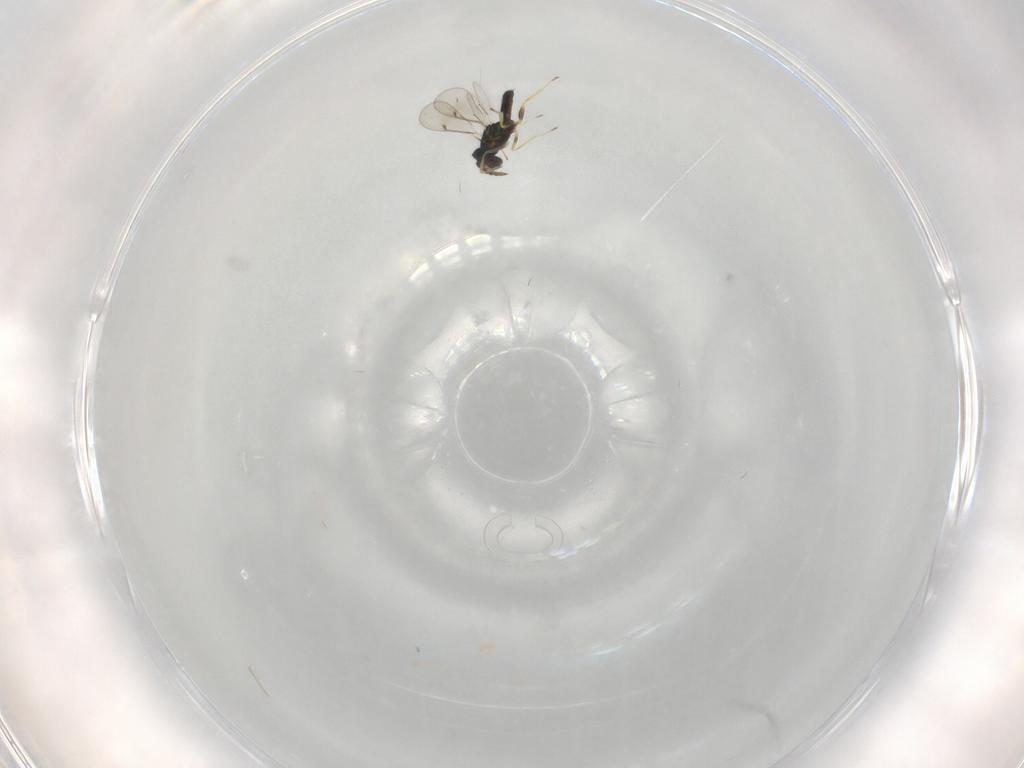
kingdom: Animalia
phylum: Arthropoda
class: Insecta
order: Hymenoptera
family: Eulophidae
